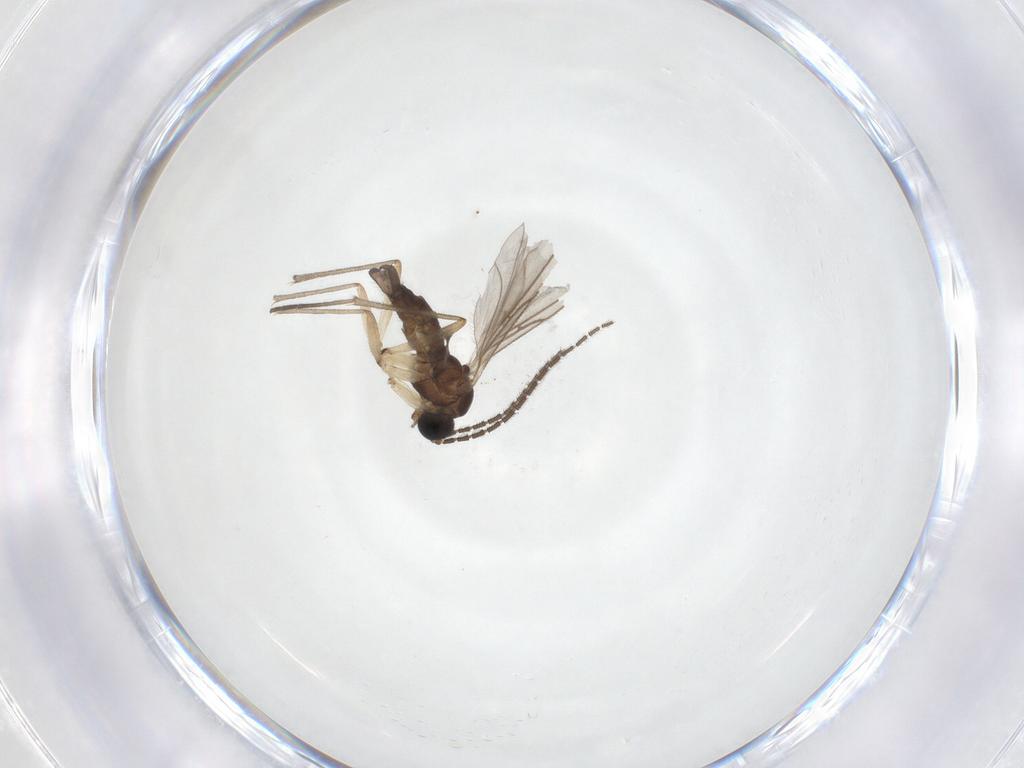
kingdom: Animalia
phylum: Arthropoda
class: Insecta
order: Diptera
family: Sciaridae
